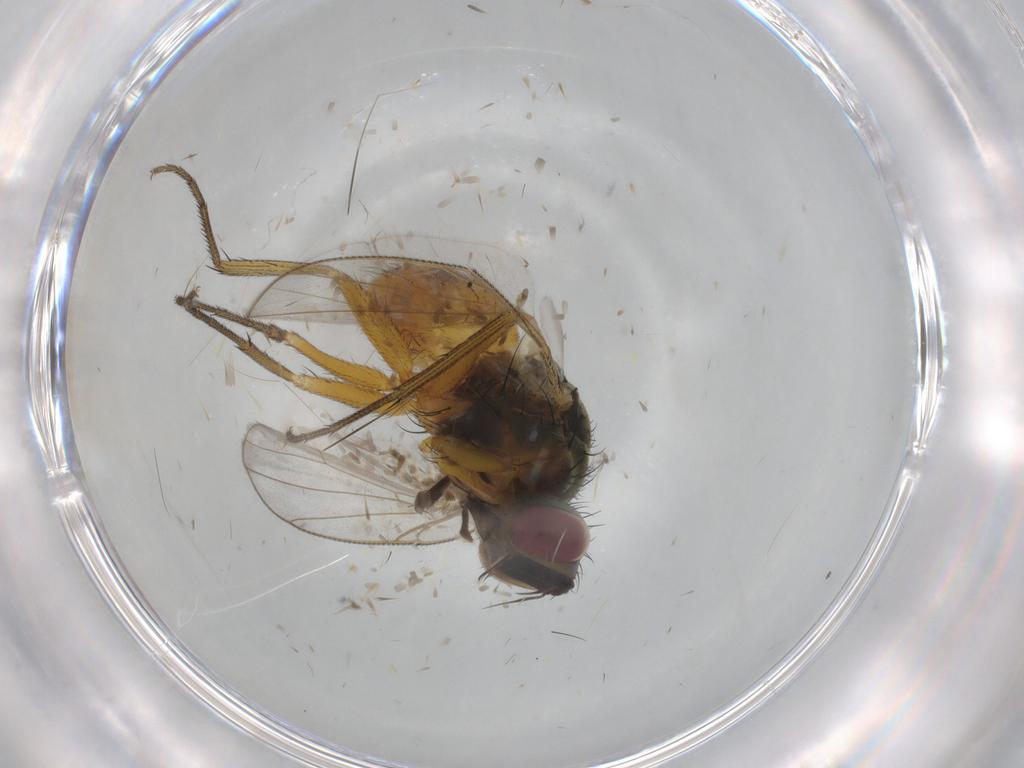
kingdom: Animalia
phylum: Arthropoda
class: Insecta
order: Diptera
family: Muscidae
